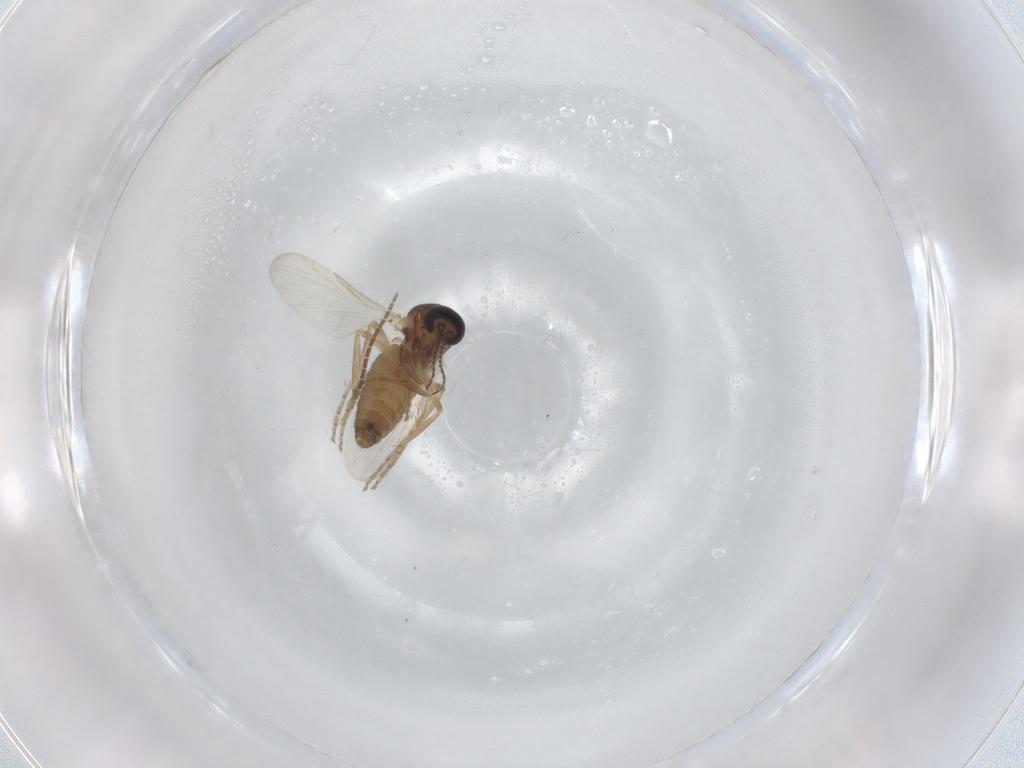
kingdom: Animalia
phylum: Arthropoda
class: Insecta
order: Diptera
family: Ceratopogonidae
